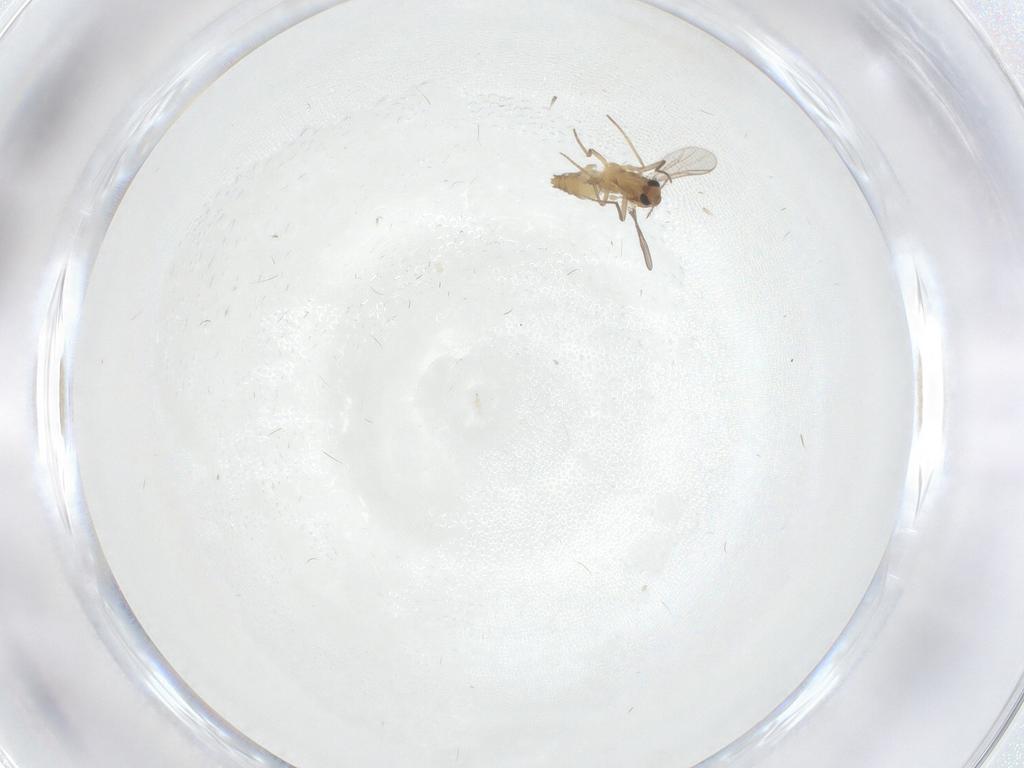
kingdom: Animalia
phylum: Arthropoda
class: Insecta
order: Diptera
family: Chironomidae
